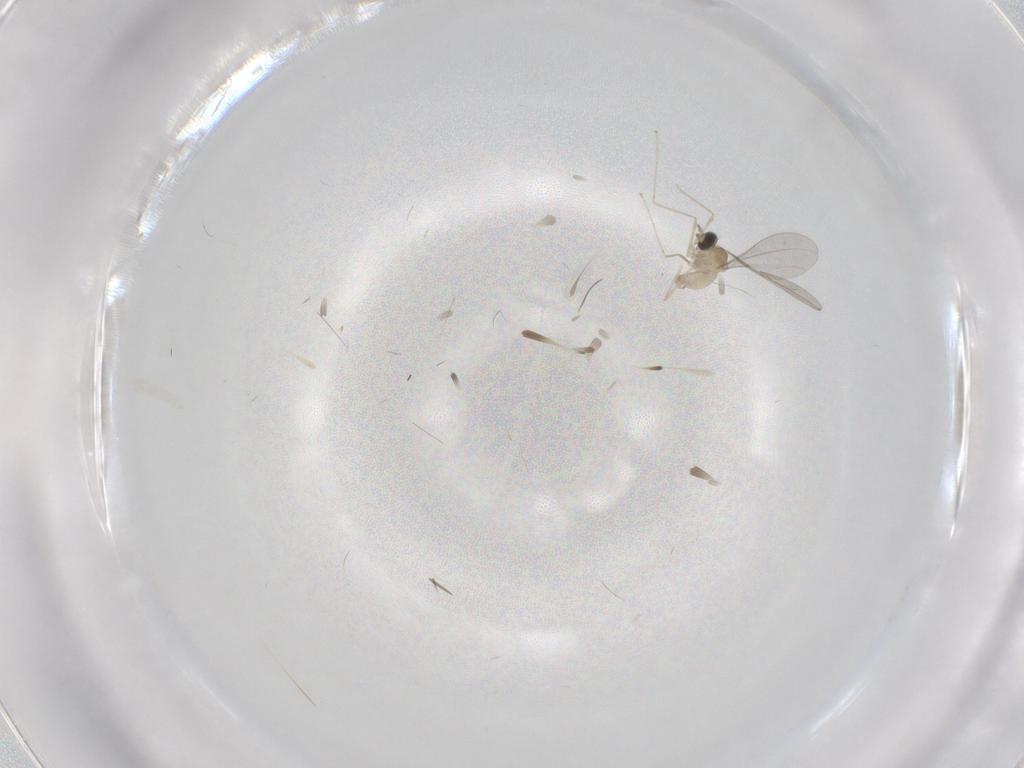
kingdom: Animalia
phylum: Arthropoda
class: Insecta
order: Diptera
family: Cecidomyiidae
